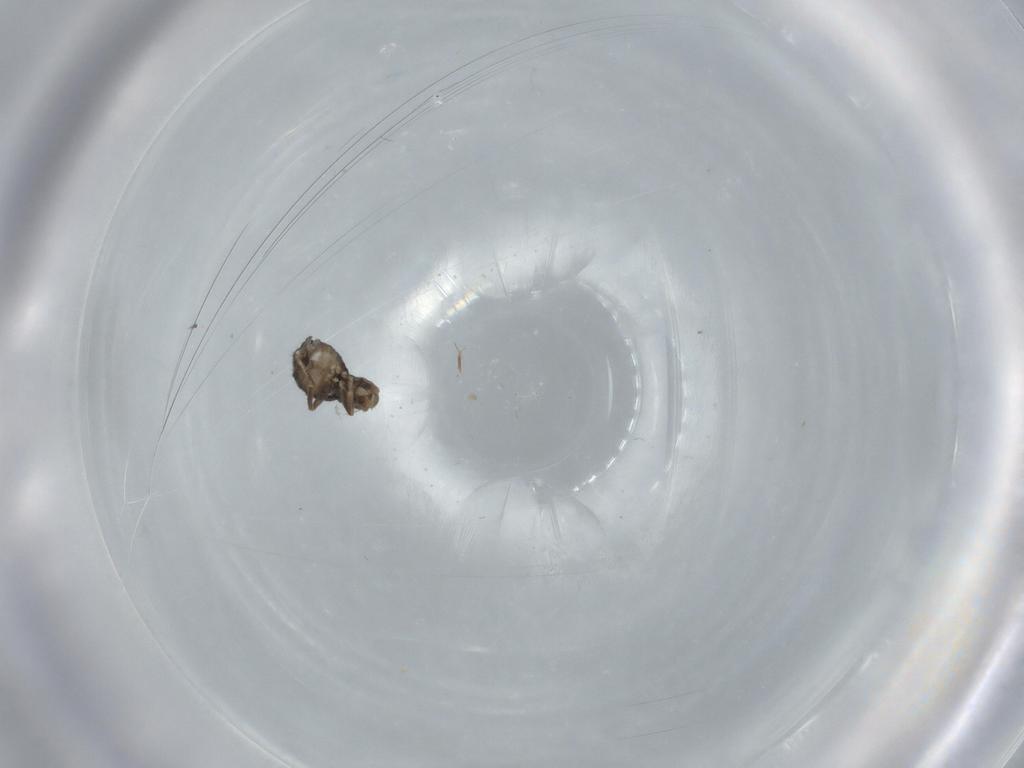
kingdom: Animalia
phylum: Arthropoda
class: Insecta
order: Diptera
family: Phoridae
